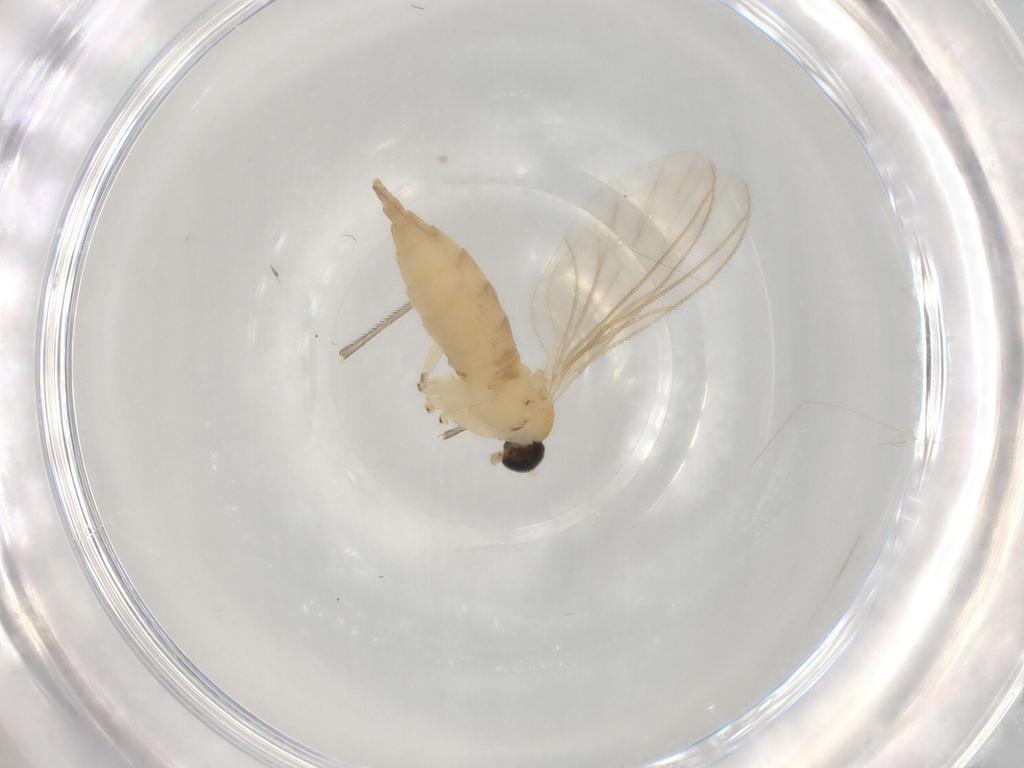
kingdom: Animalia
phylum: Arthropoda
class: Insecta
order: Diptera
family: Sciaridae
